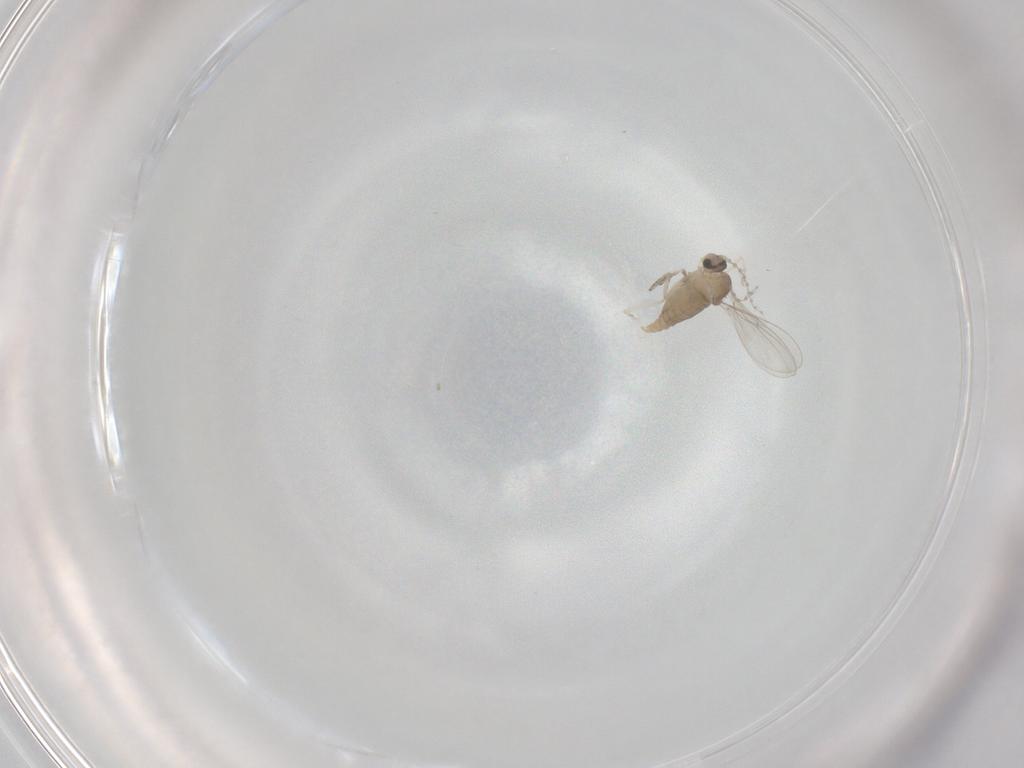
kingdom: Animalia
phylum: Arthropoda
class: Insecta
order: Diptera
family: Cecidomyiidae
